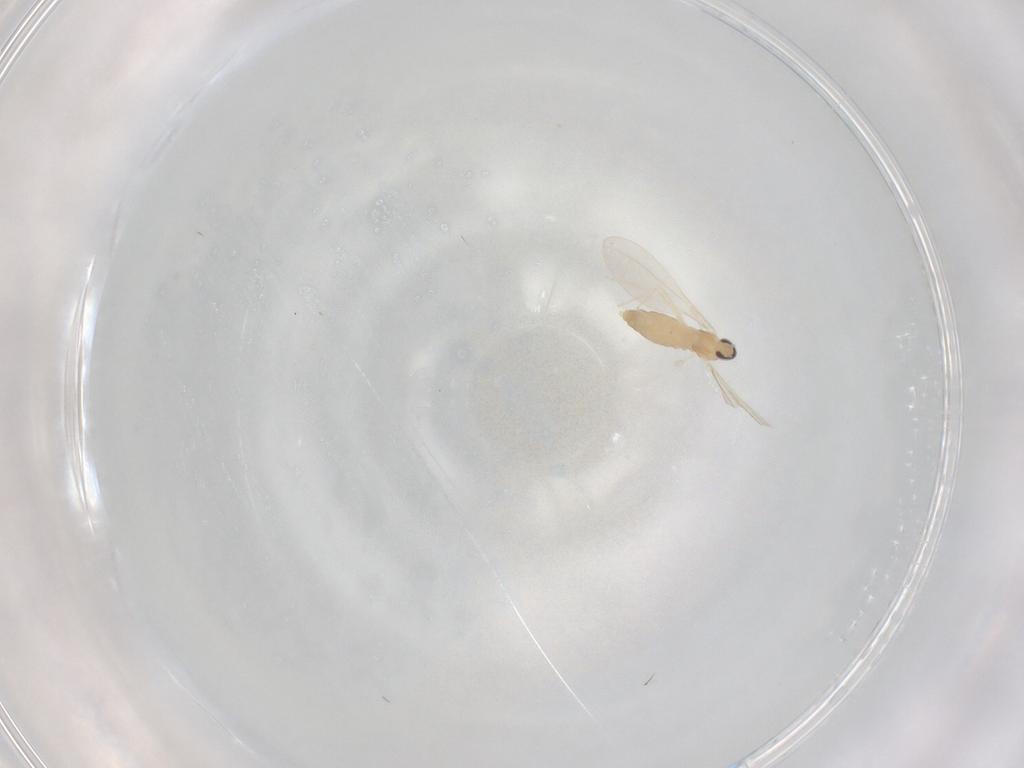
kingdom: Animalia
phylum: Arthropoda
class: Insecta
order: Diptera
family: Cecidomyiidae
